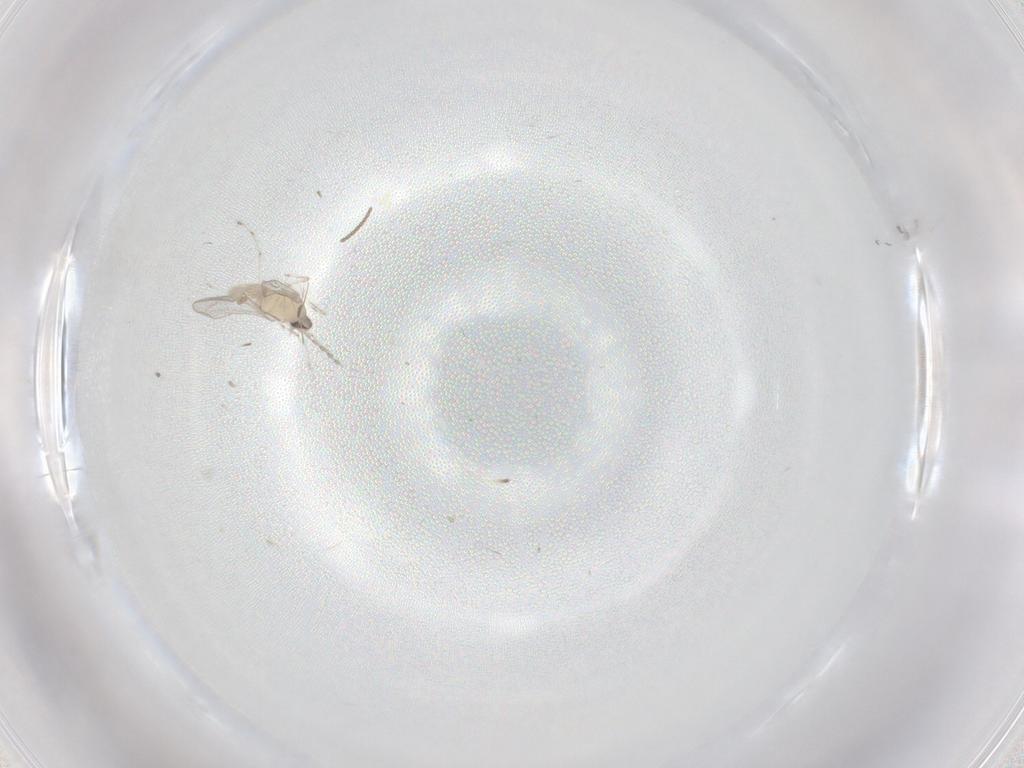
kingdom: Animalia
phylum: Arthropoda
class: Insecta
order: Diptera
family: Cecidomyiidae
